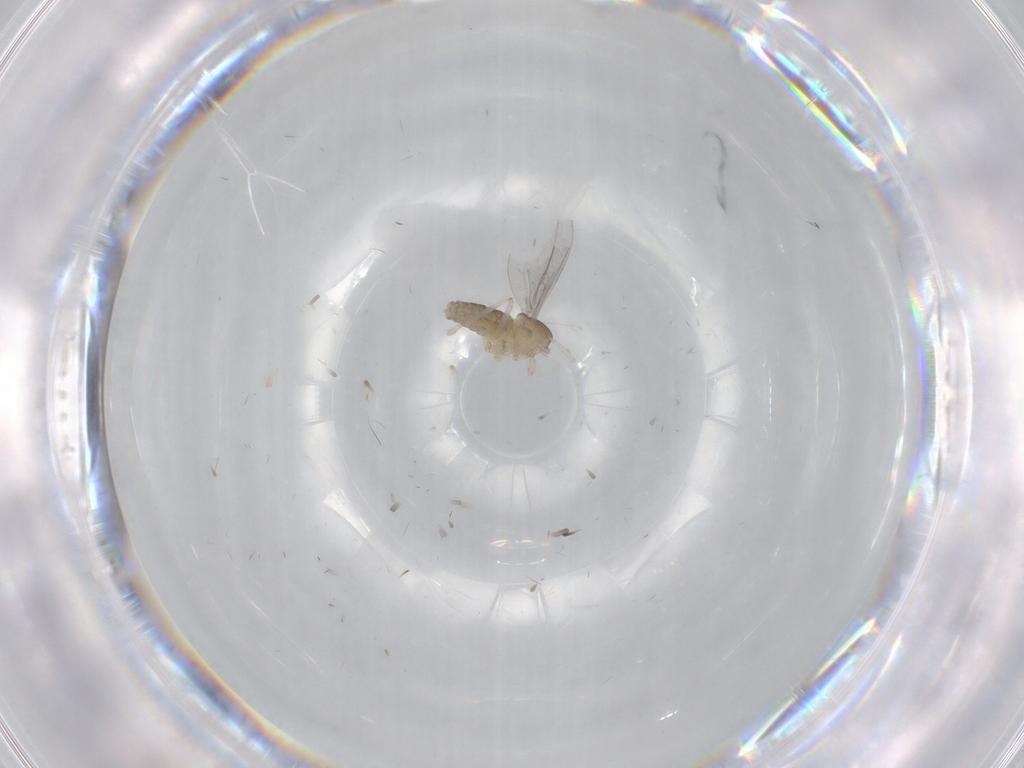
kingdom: Animalia
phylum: Arthropoda
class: Insecta
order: Diptera
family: Cecidomyiidae
